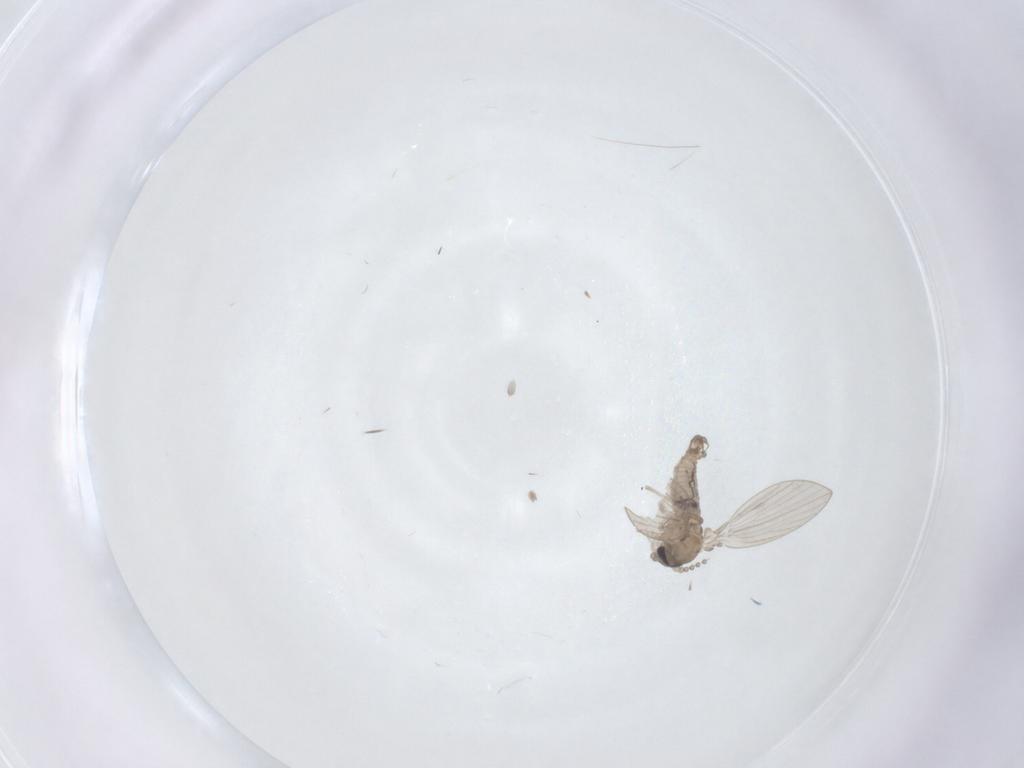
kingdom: Animalia
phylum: Arthropoda
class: Insecta
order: Diptera
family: Psychodidae
